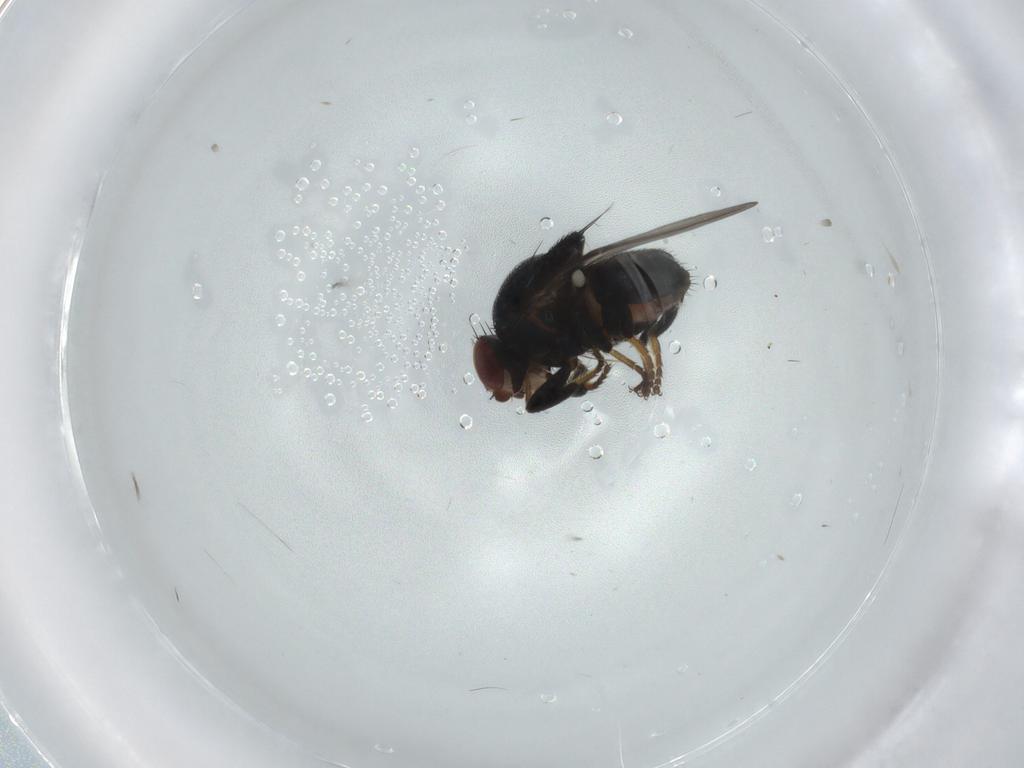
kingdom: Animalia
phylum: Arthropoda
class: Insecta
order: Diptera
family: Chloropidae
